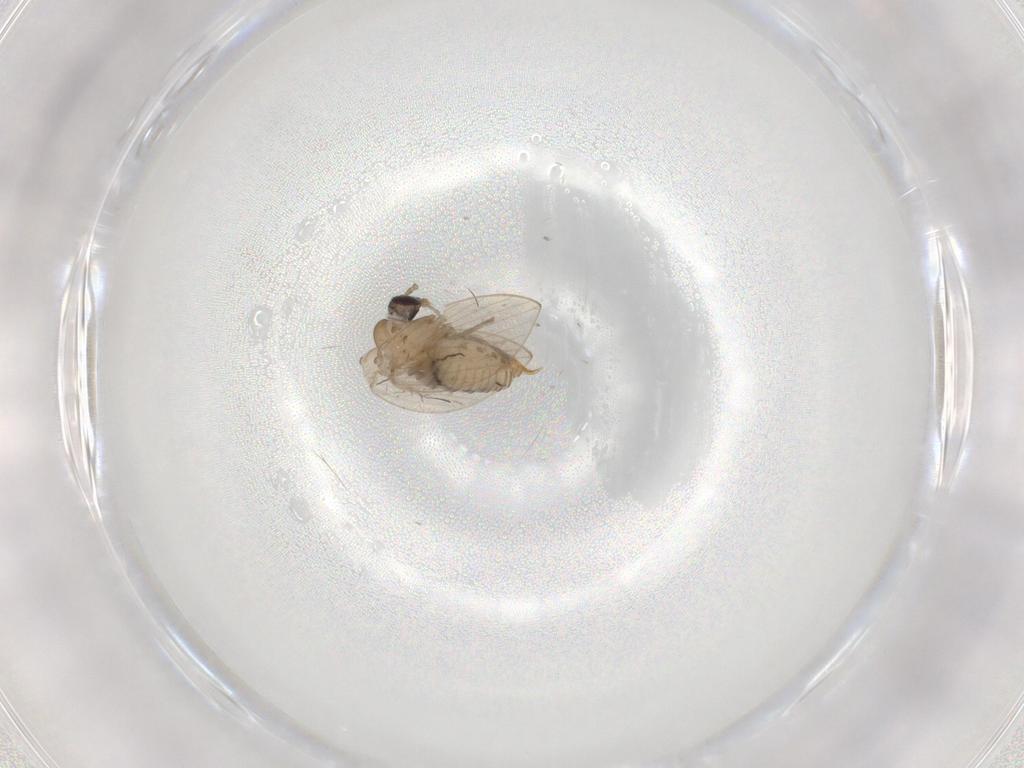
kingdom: Animalia
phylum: Arthropoda
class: Insecta
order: Diptera
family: Psychodidae
